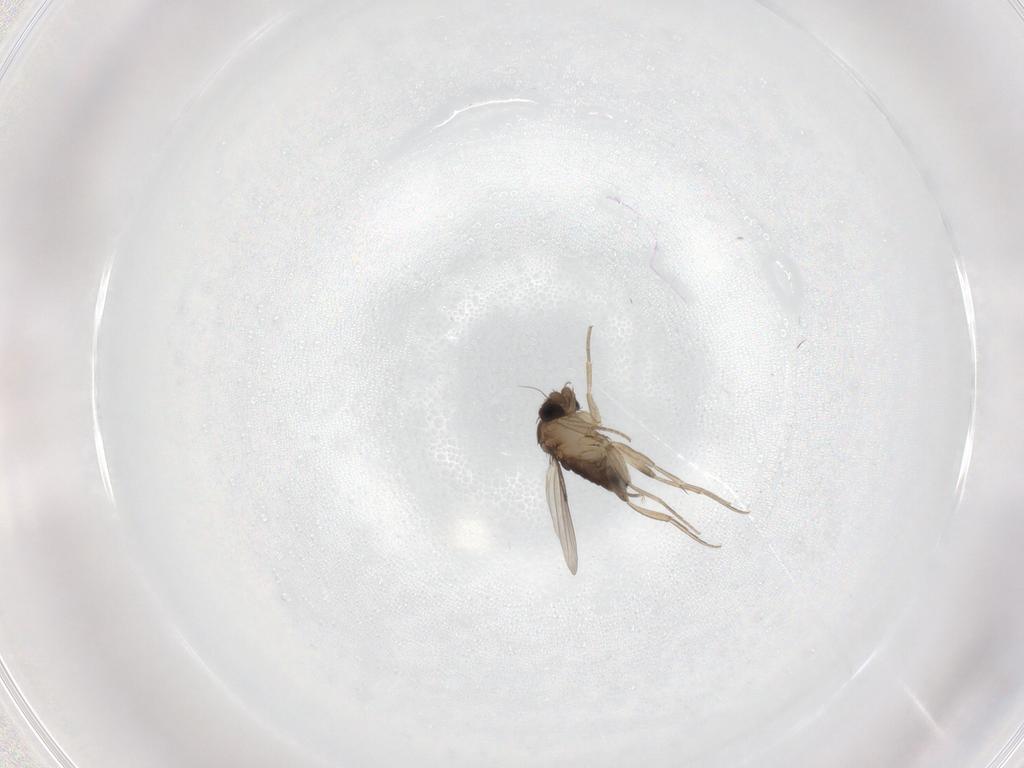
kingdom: Animalia
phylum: Arthropoda
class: Insecta
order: Diptera
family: Phoridae
